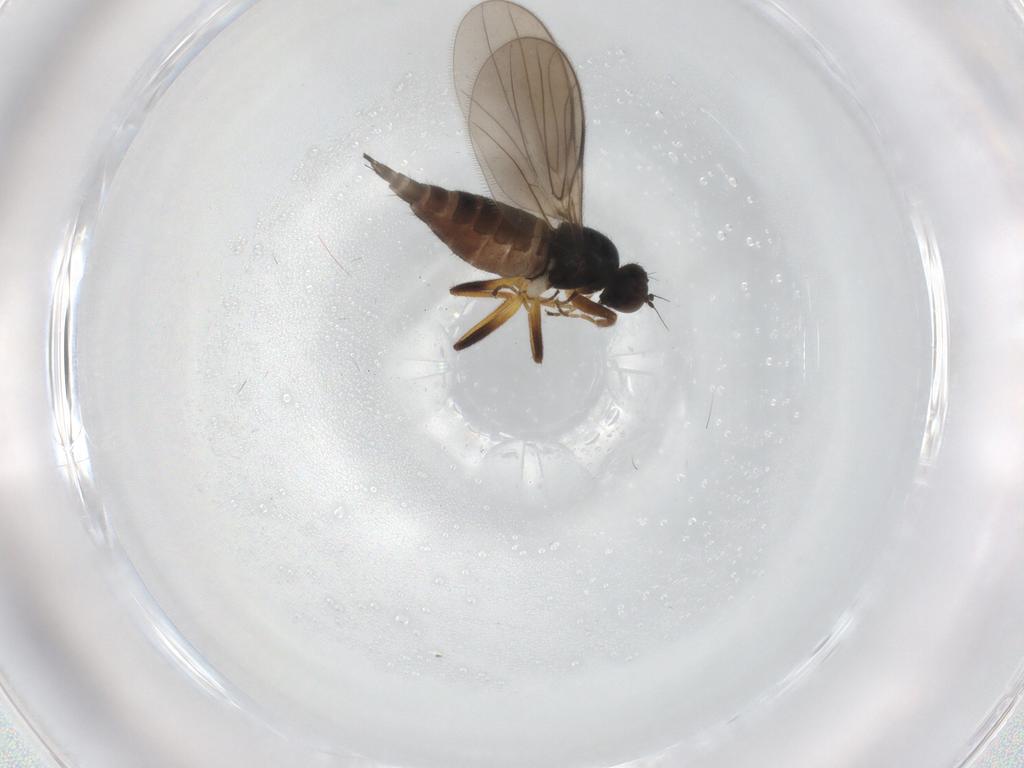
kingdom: Animalia
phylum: Arthropoda
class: Insecta
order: Diptera
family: Hybotidae
